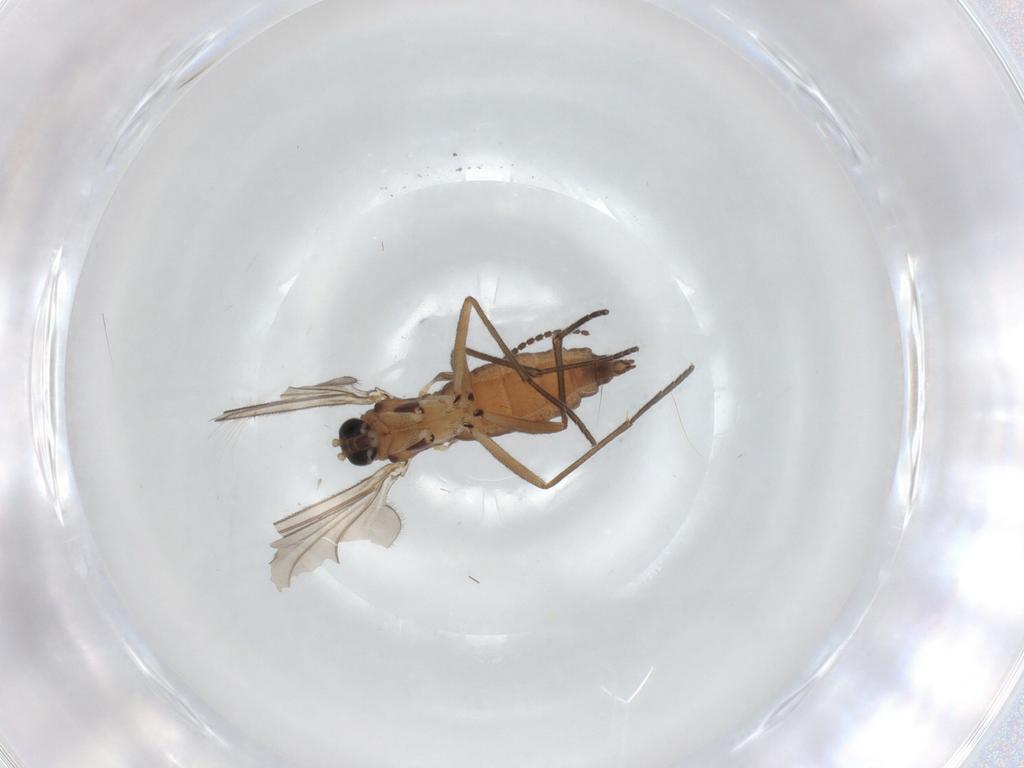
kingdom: Animalia
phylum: Arthropoda
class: Insecta
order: Diptera
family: Sciaridae
